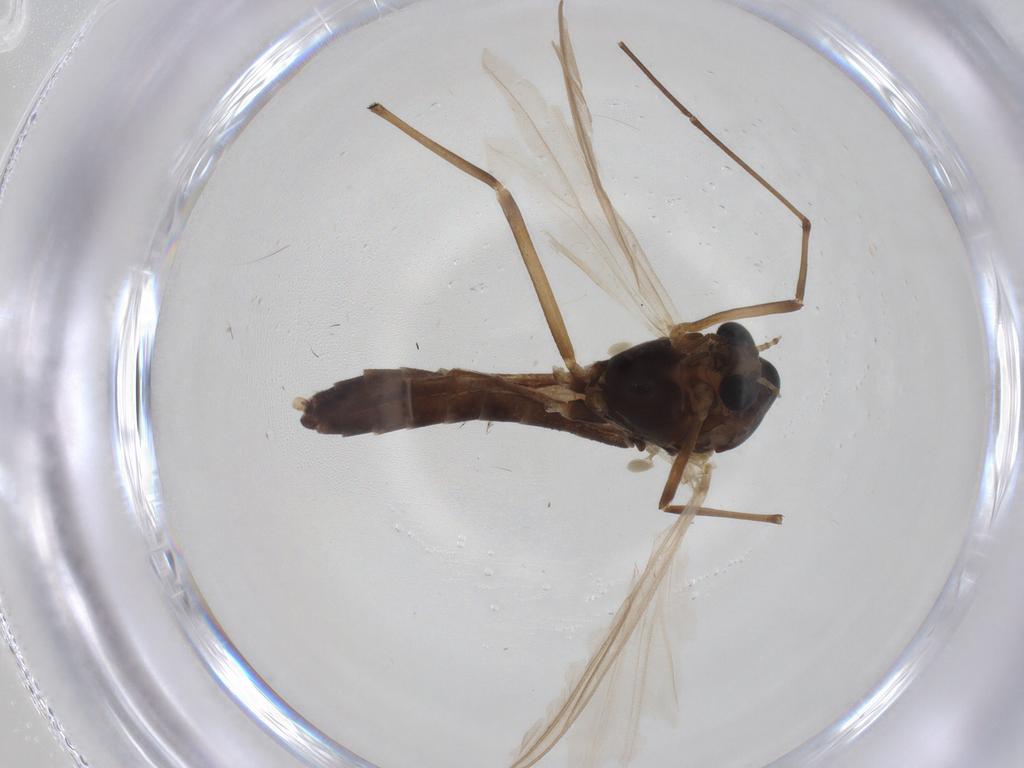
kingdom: Animalia
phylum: Arthropoda
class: Insecta
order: Diptera
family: Chironomidae
